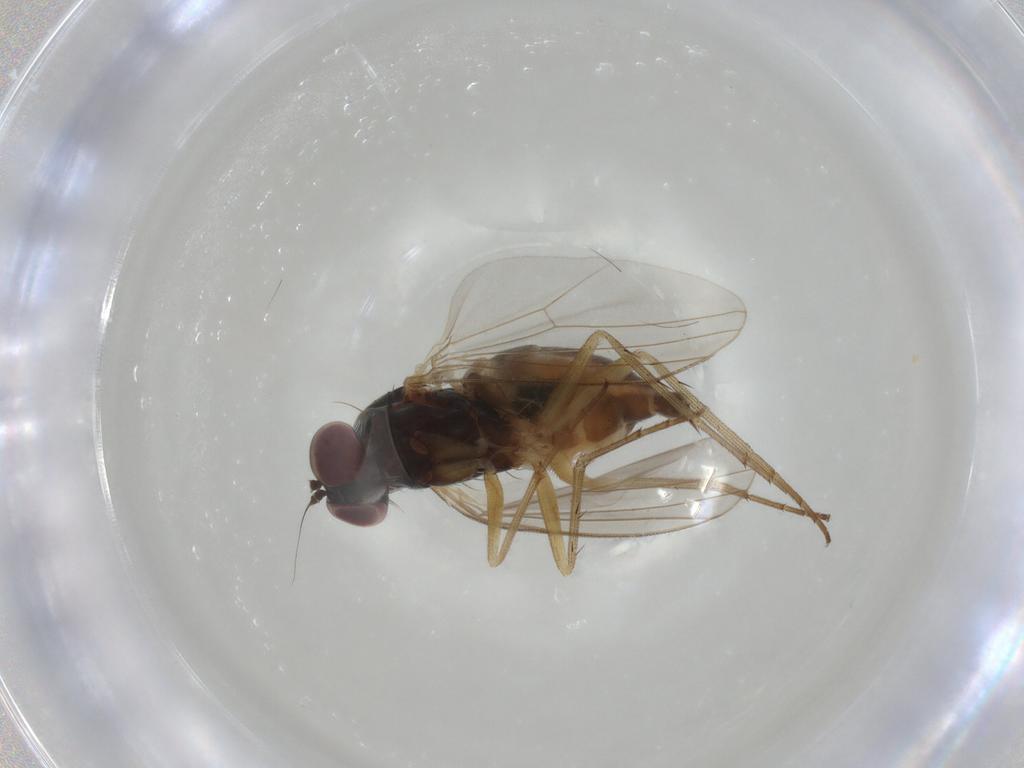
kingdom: Animalia
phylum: Arthropoda
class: Insecta
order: Diptera
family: Dolichopodidae
